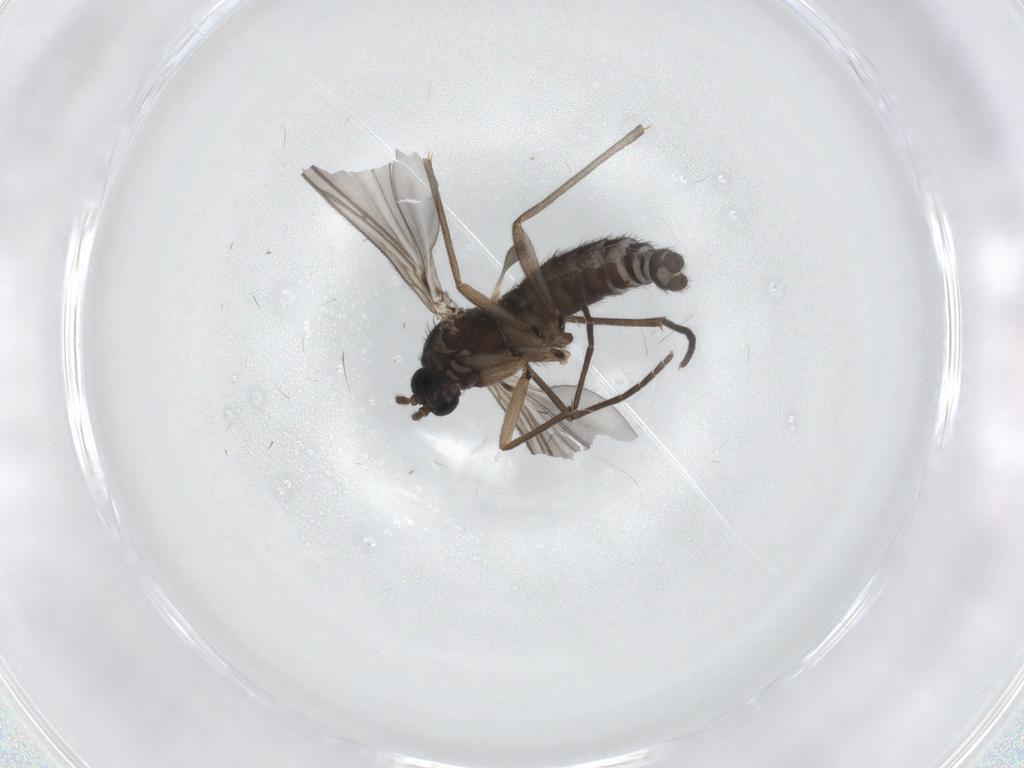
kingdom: Animalia
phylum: Arthropoda
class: Insecta
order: Diptera
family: Sciaridae
